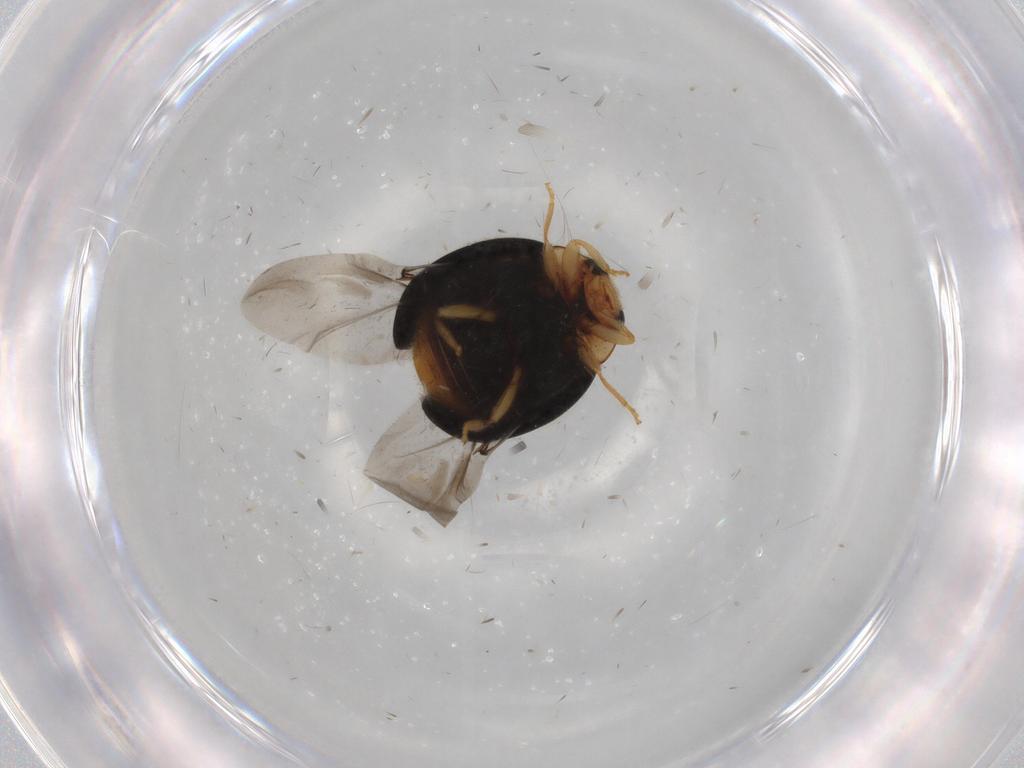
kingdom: Animalia
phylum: Arthropoda
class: Insecta
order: Coleoptera
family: Coccinellidae
